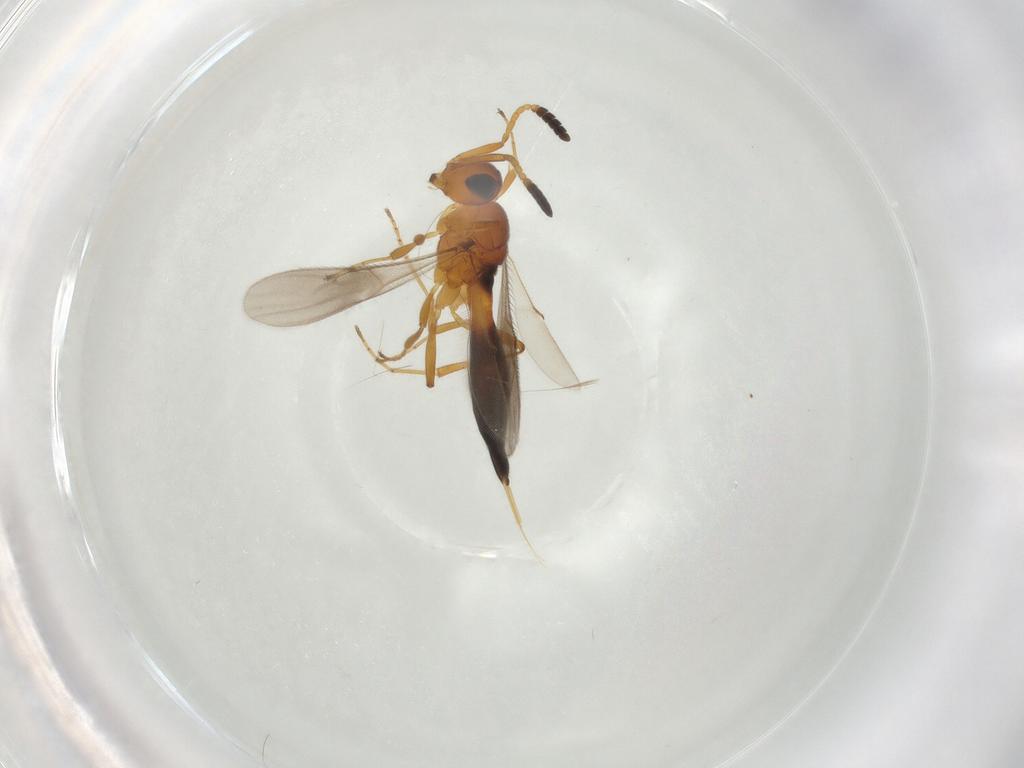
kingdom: Animalia
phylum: Arthropoda
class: Insecta
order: Hymenoptera
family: Scelionidae
